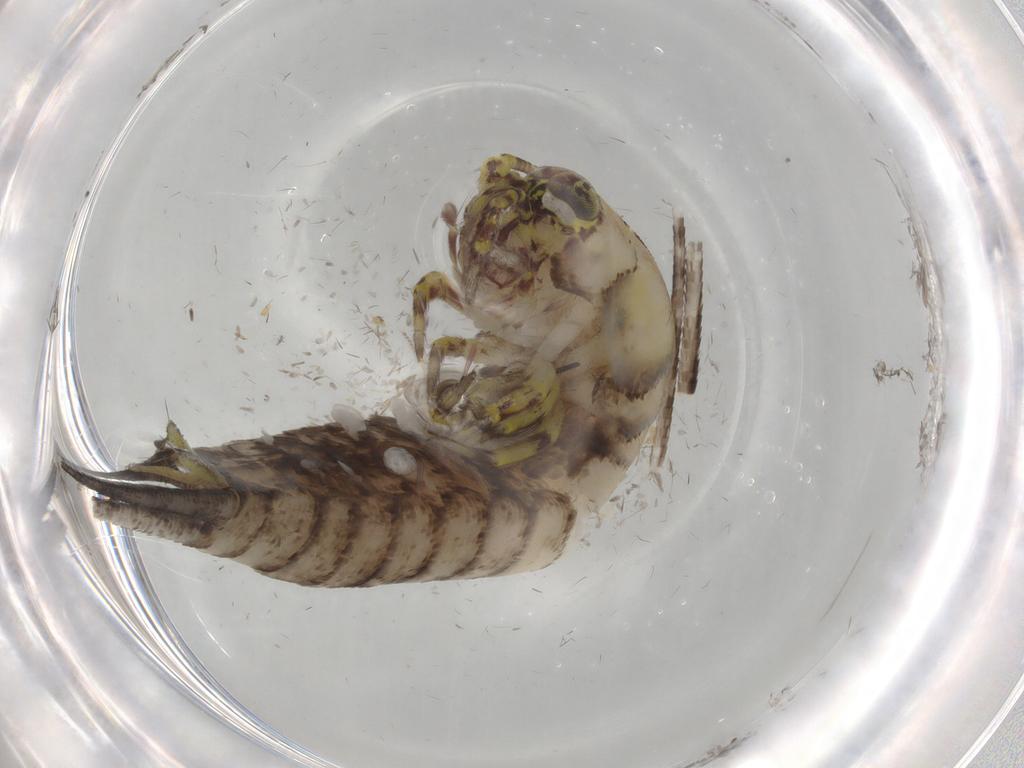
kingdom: Animalia
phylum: Arthropoda
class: Insecta
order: Archaeognatha
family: Machilidae
